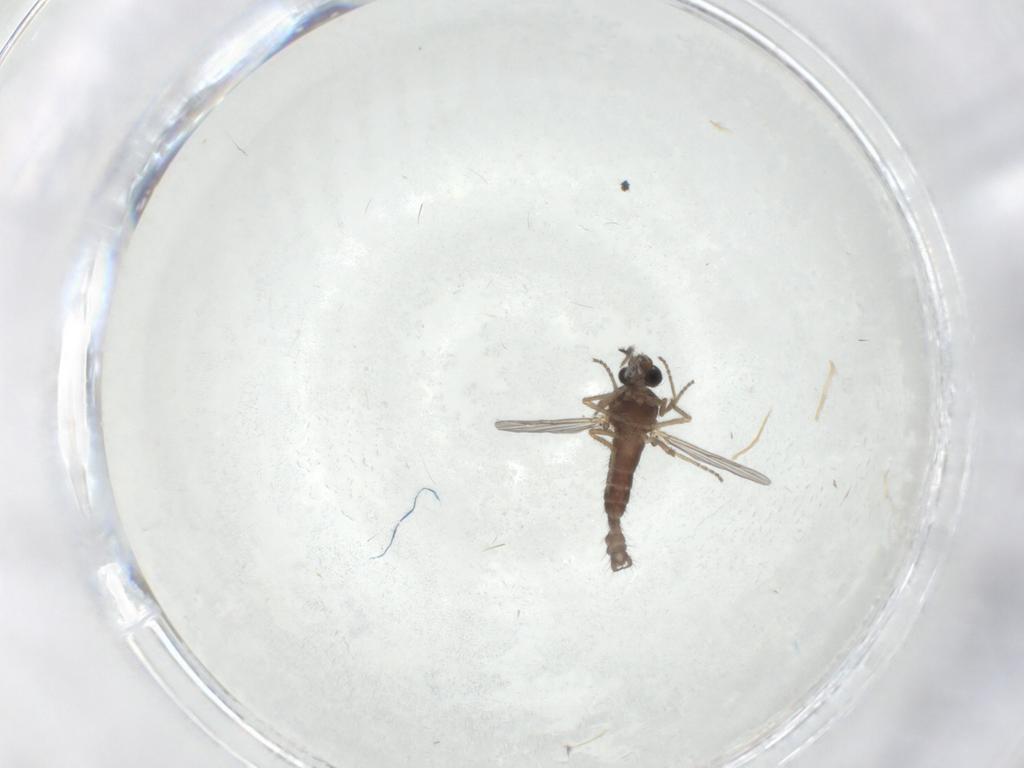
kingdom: Animalia
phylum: Arthropoda
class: Insecta
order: Diptera
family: Ceratopogonidae
